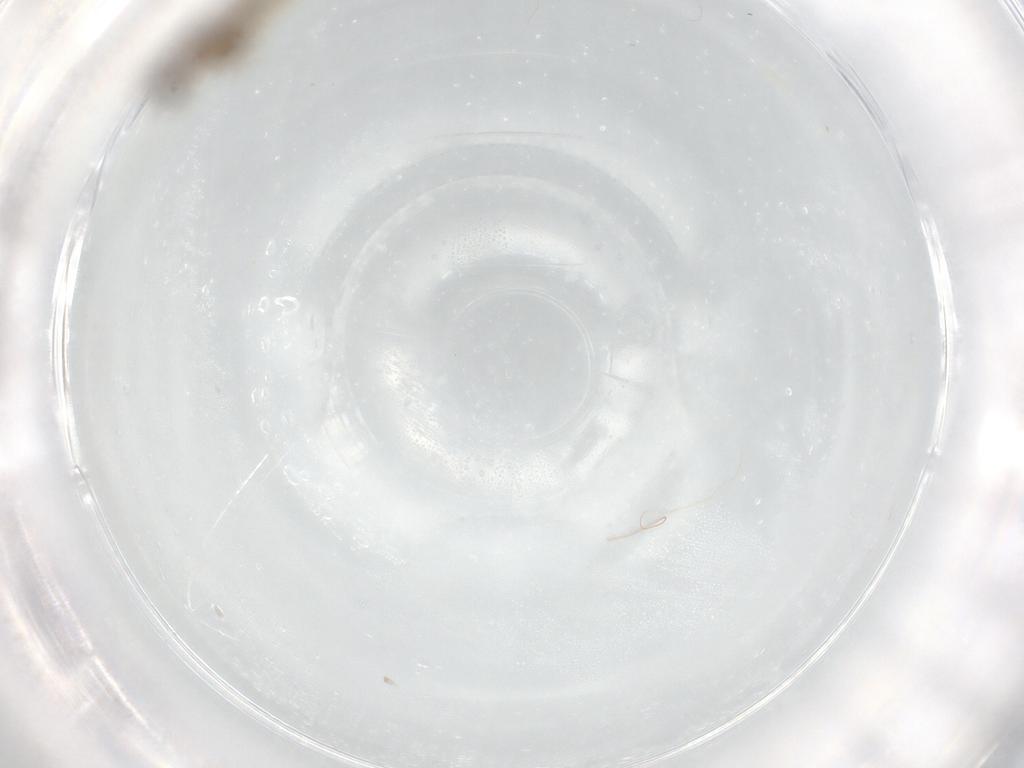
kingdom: Animalia
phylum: Arthropoda
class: Insecta
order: Diptera
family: Cecidomyiidae
